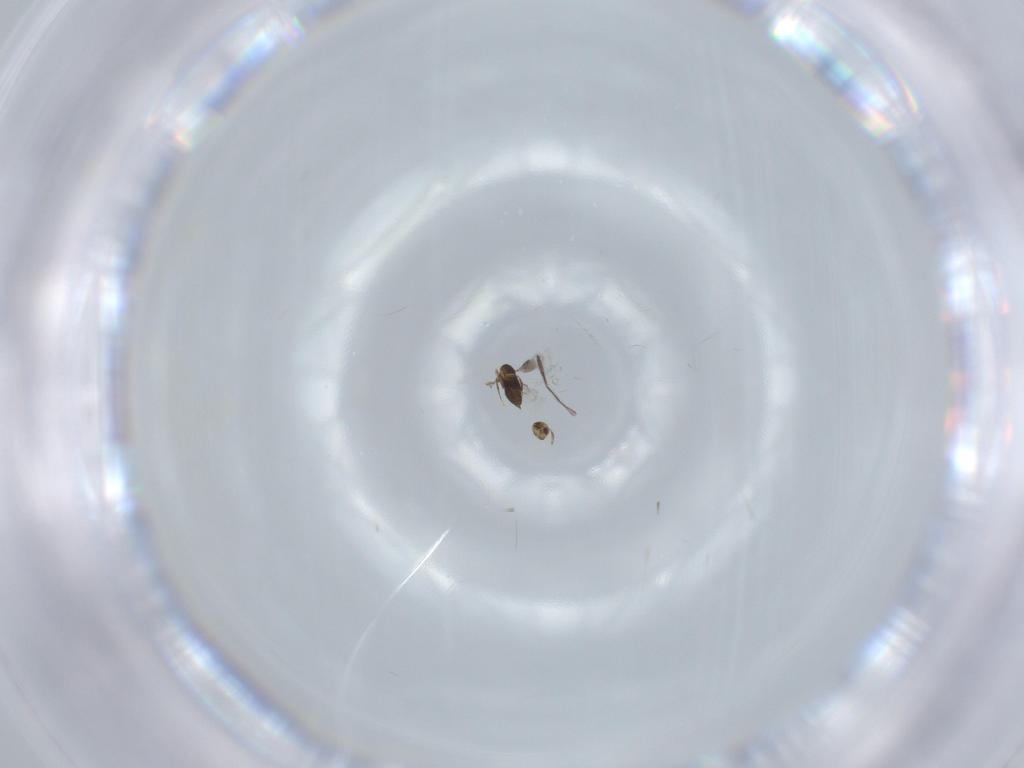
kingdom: Animalia
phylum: Arthropoda
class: Insecta
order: Hymenoptera
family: Signiphoridae
